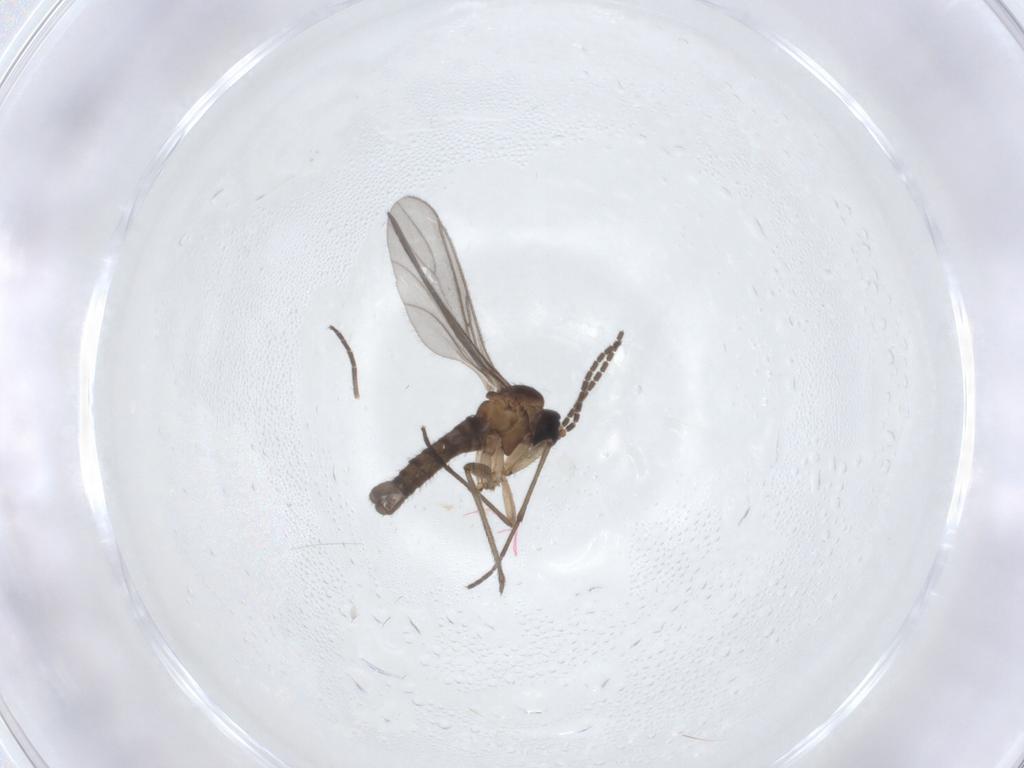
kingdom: Animalia
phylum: Arthropoda
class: Insecta
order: Diptera
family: Sciaridae
